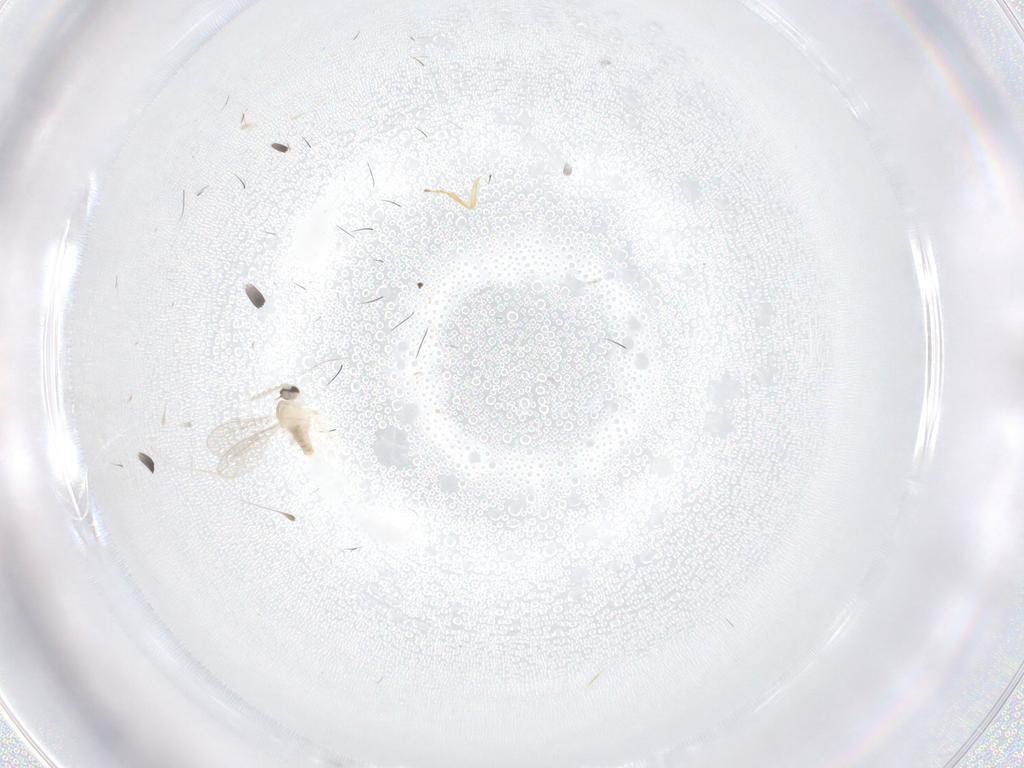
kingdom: Animalia
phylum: Arthropoda
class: Insecta
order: Diptera
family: Cecidomyiidae
